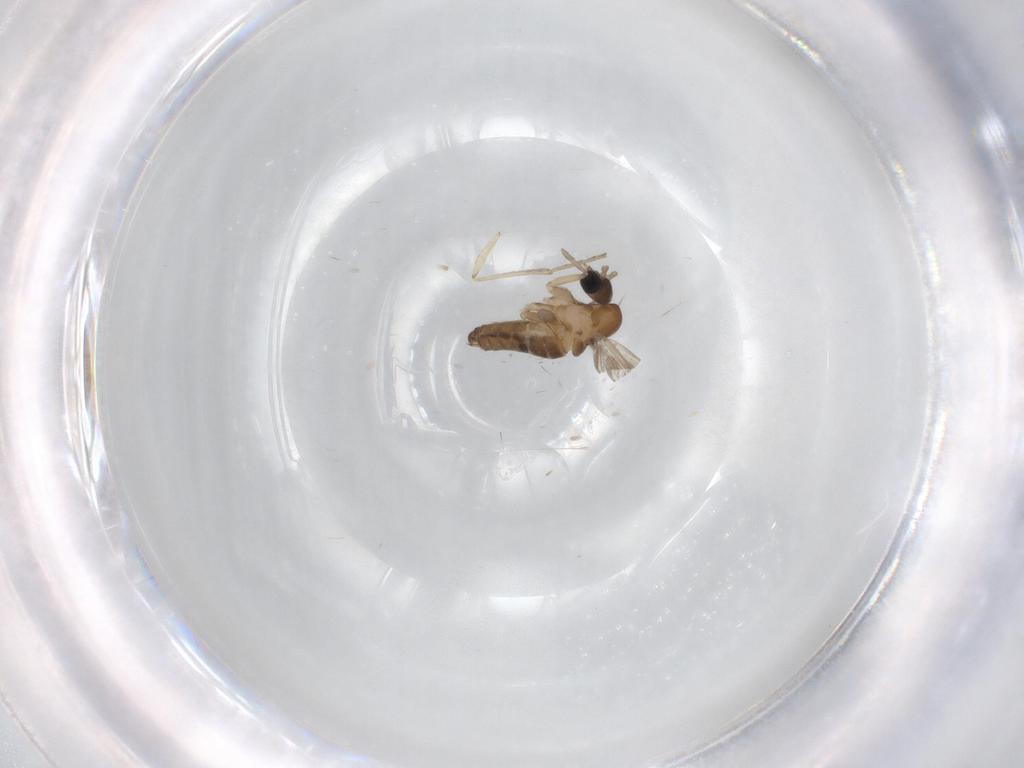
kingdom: Animalia
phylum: Arthropoda
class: Insecta
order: Diptera
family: Chironomidae
